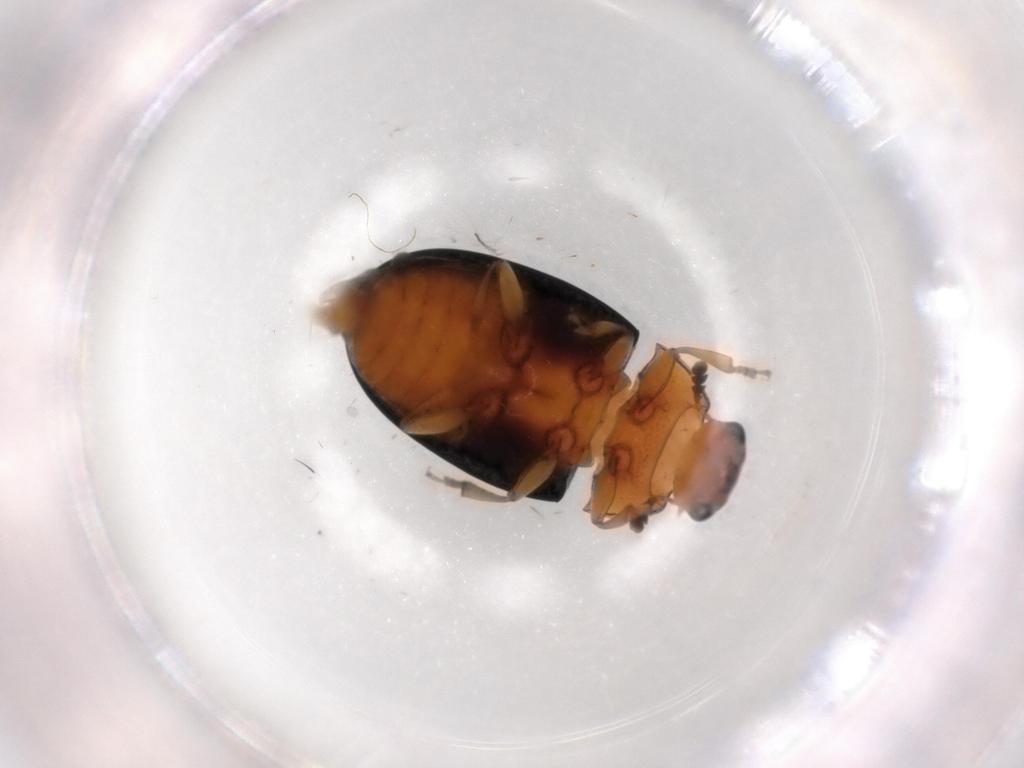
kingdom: Animalia
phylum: Arthropoda
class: Insecta
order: Coleoptera
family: Erotylidae
